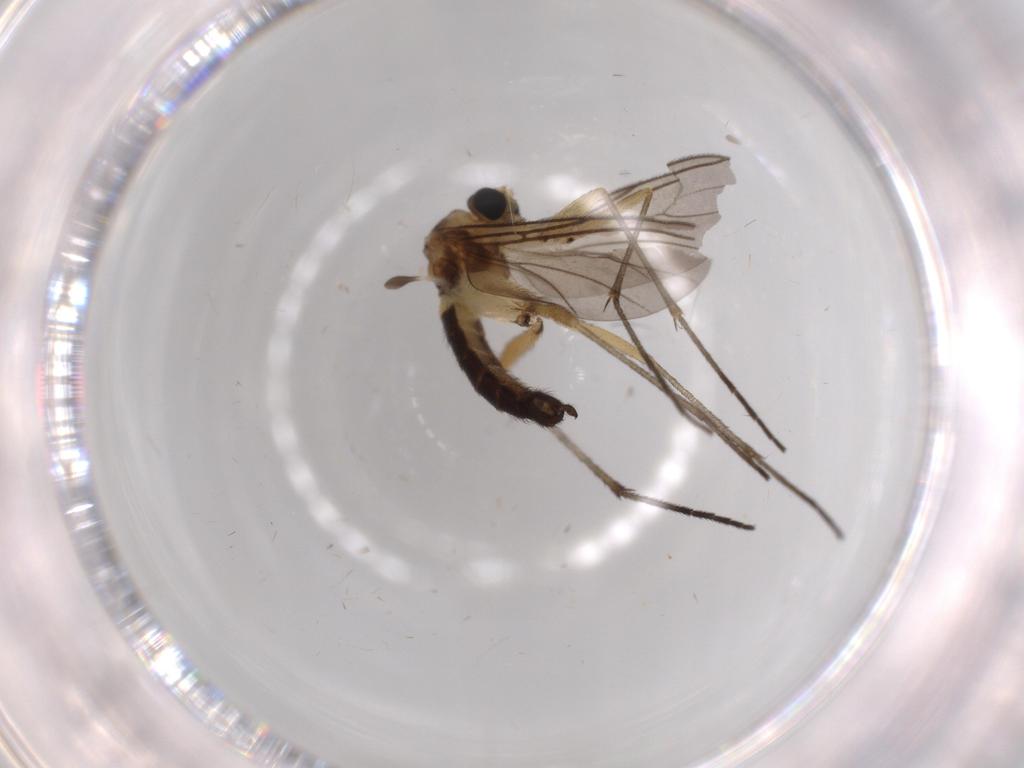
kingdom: Animalia
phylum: Arthropoda
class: Insecta
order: Diptera
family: Sciaridae
